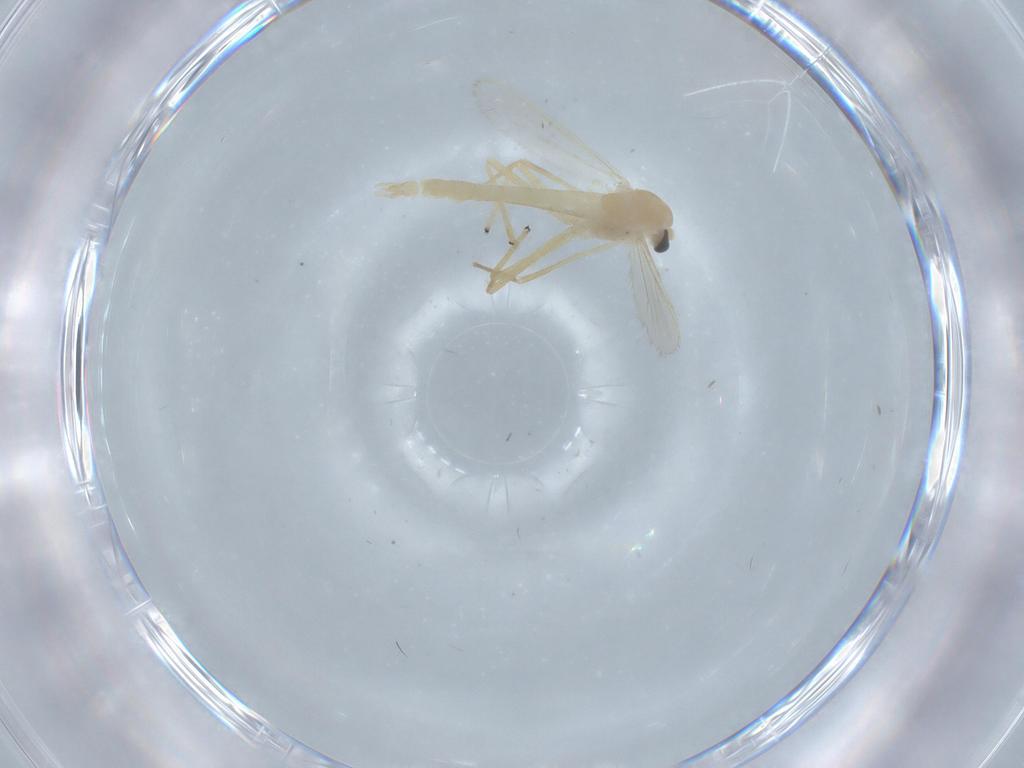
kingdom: Animalia
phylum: Arthropoda
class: Insecta
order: Diptera
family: Chironomidae
